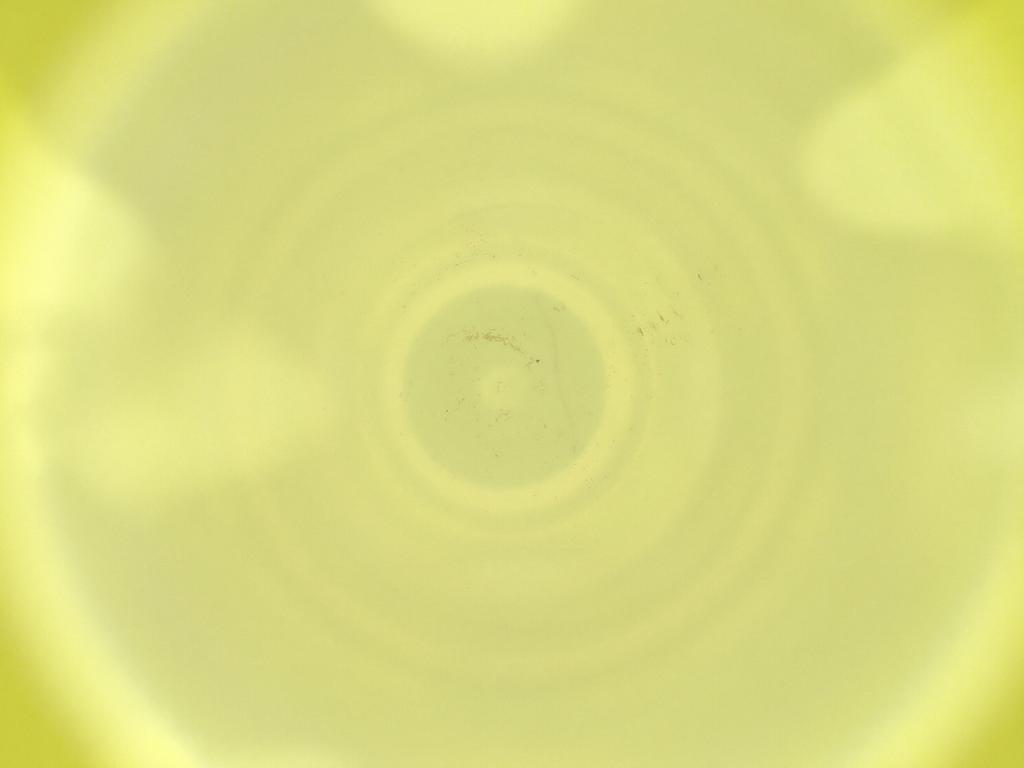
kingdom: Animalia
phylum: Arthropoda
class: Insecta
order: Diptera
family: Cecidomyiidae
